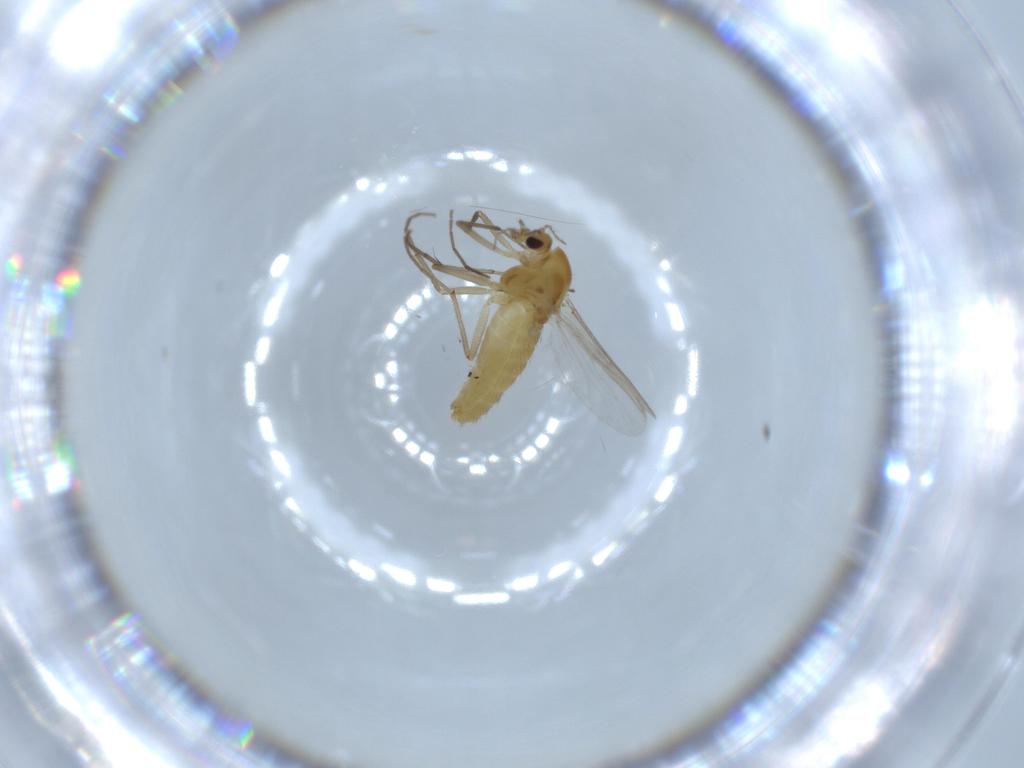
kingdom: Animalia
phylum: Arthropoda
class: Insecta
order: Diptera
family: Chironomidae
